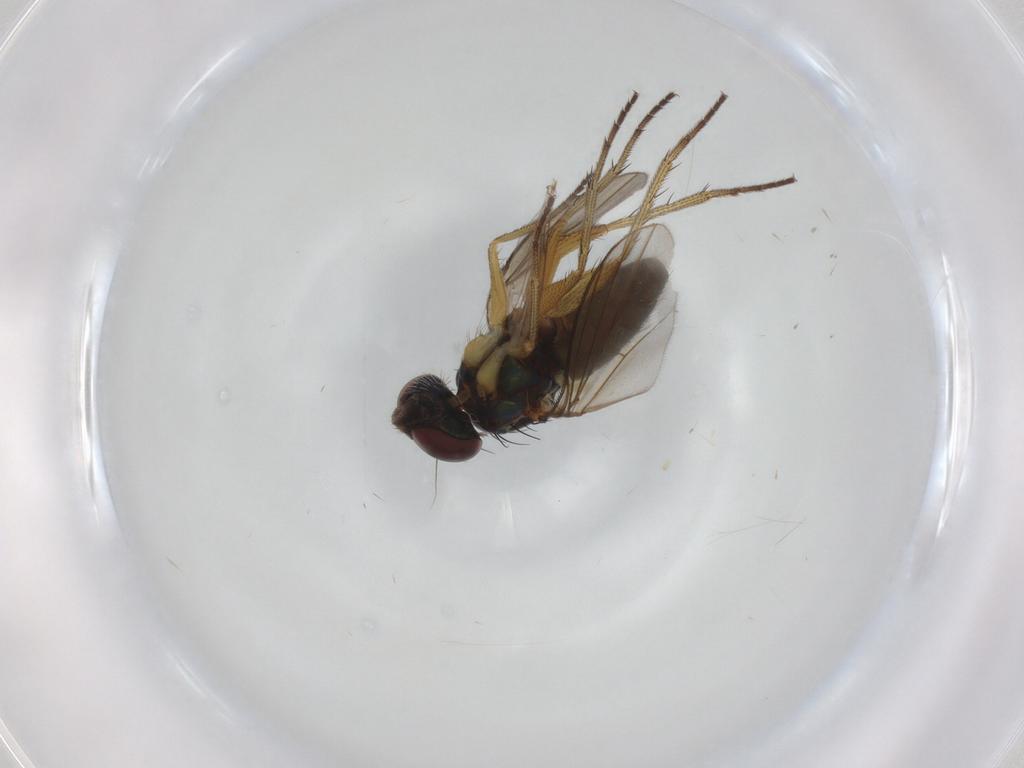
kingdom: Animalia
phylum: Arthropoda
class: Insecta
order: Diptera
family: Dolichopodidae
